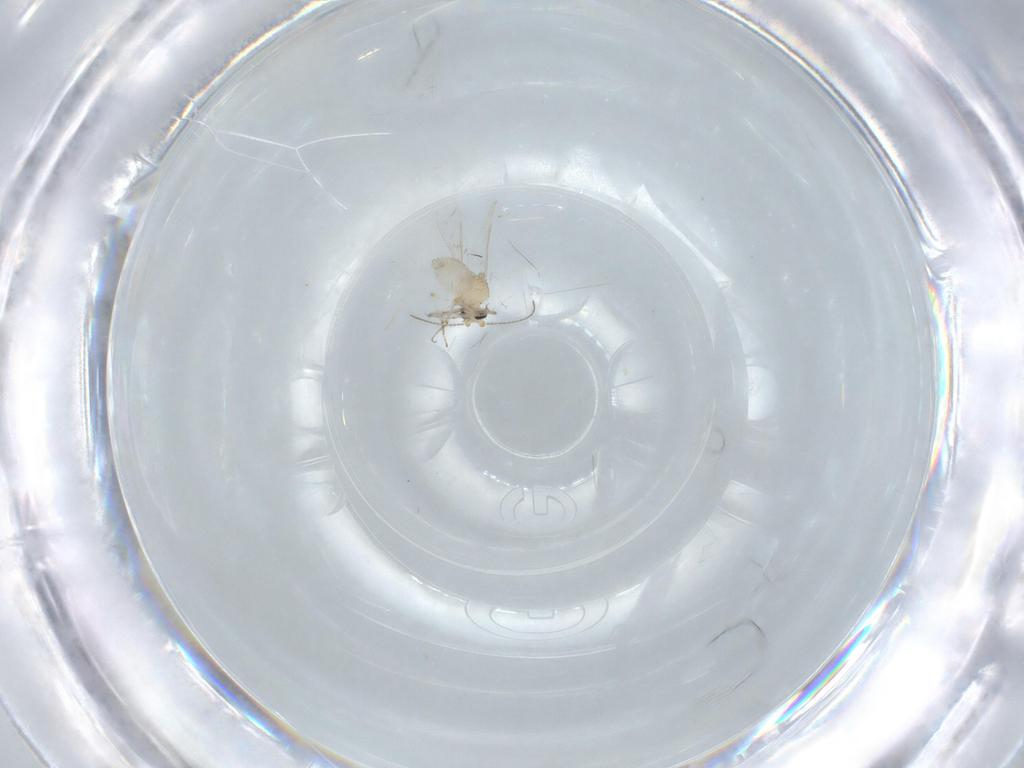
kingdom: Animalia
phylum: Arthropoda
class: Insecta
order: Diptera
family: Ceratopogonidae
